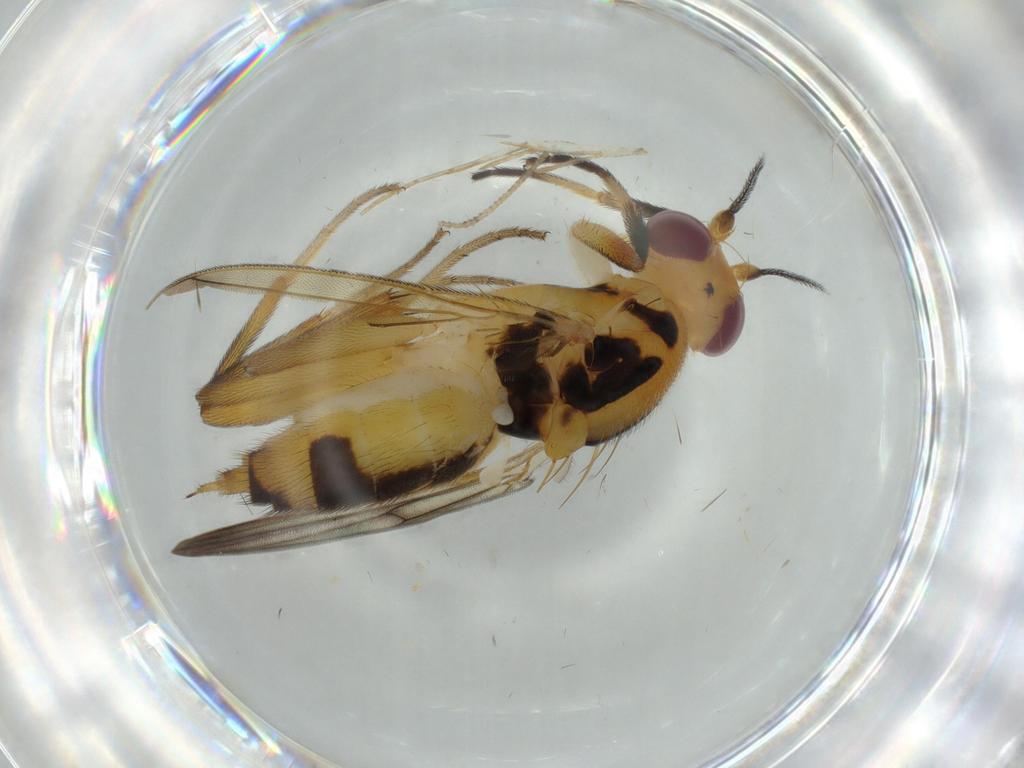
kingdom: Animalia
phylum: Arthropoda
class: Insecta
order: Diptera
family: Clusiidae
